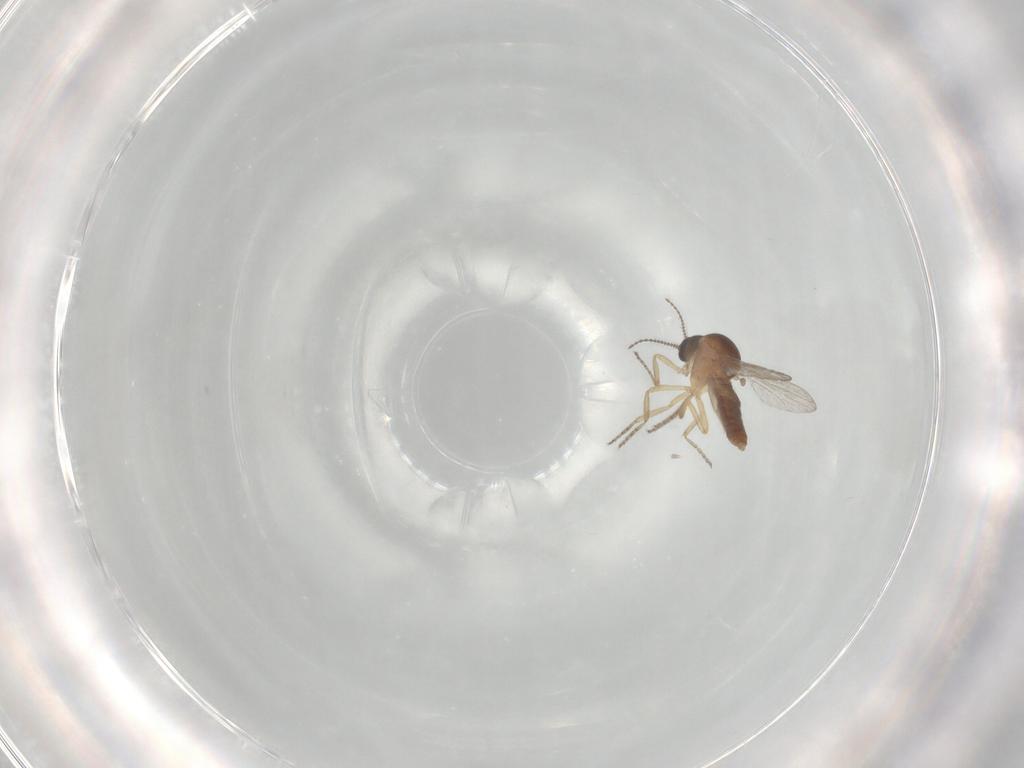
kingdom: Animalia
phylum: Arthropoda
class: Insecta
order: Diptera
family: Ceratopogonidae
